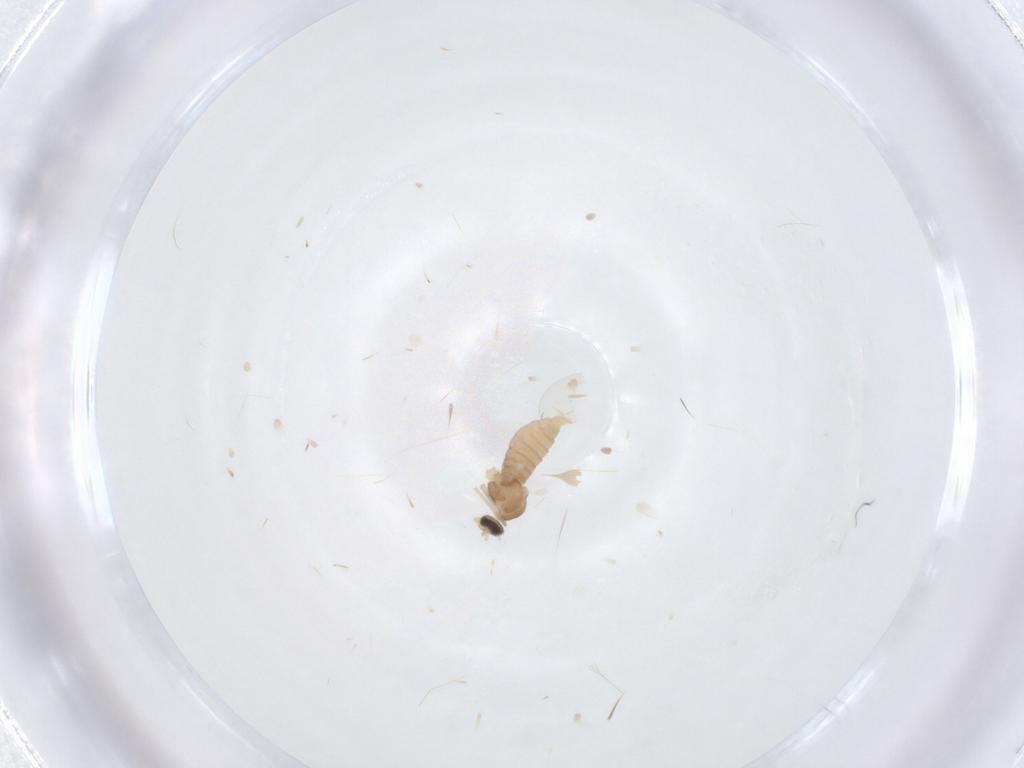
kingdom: Animalia
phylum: Arthropoda
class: Insecta
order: Diptera
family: Cecidomyiidae
